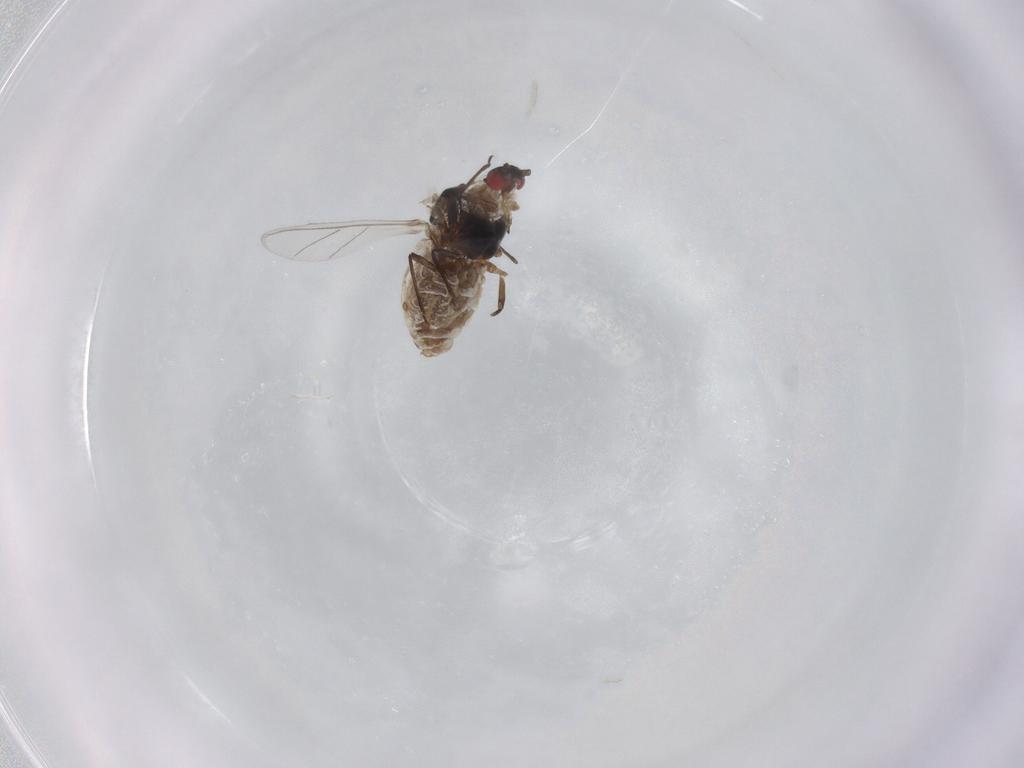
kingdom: Animalia
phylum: Arthropoda
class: Insecta
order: Hemiptera
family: Aphididae
